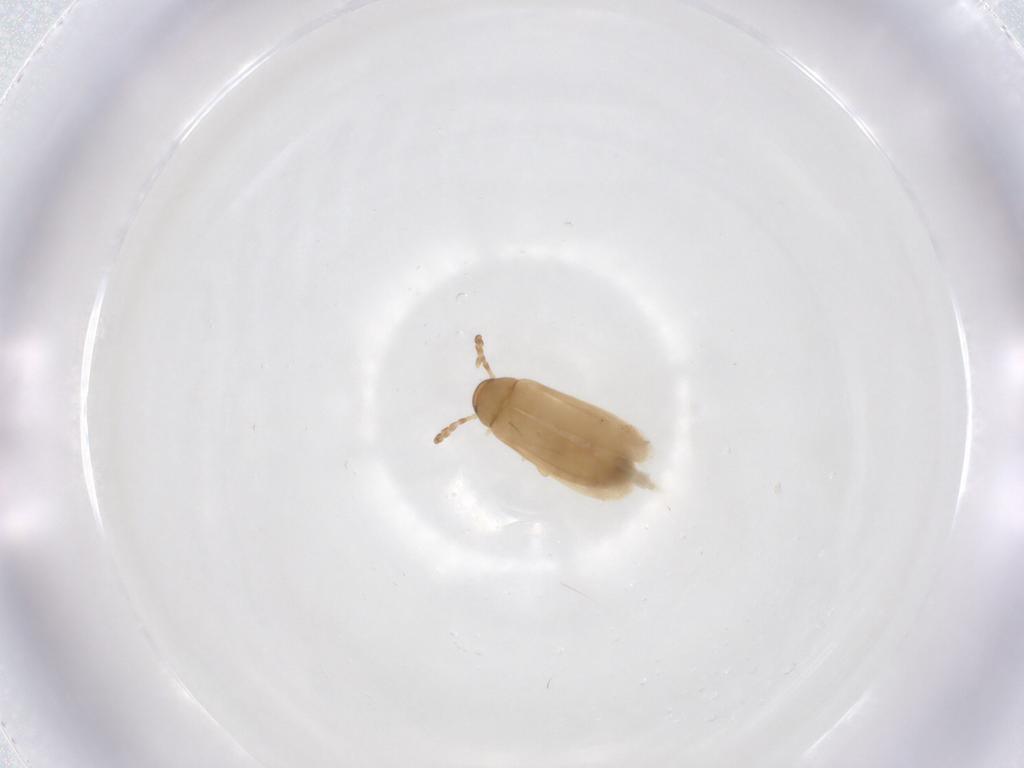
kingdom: Animalia
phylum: Arthropoda
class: Insecta
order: Coleoptera
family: Scraptiidae
